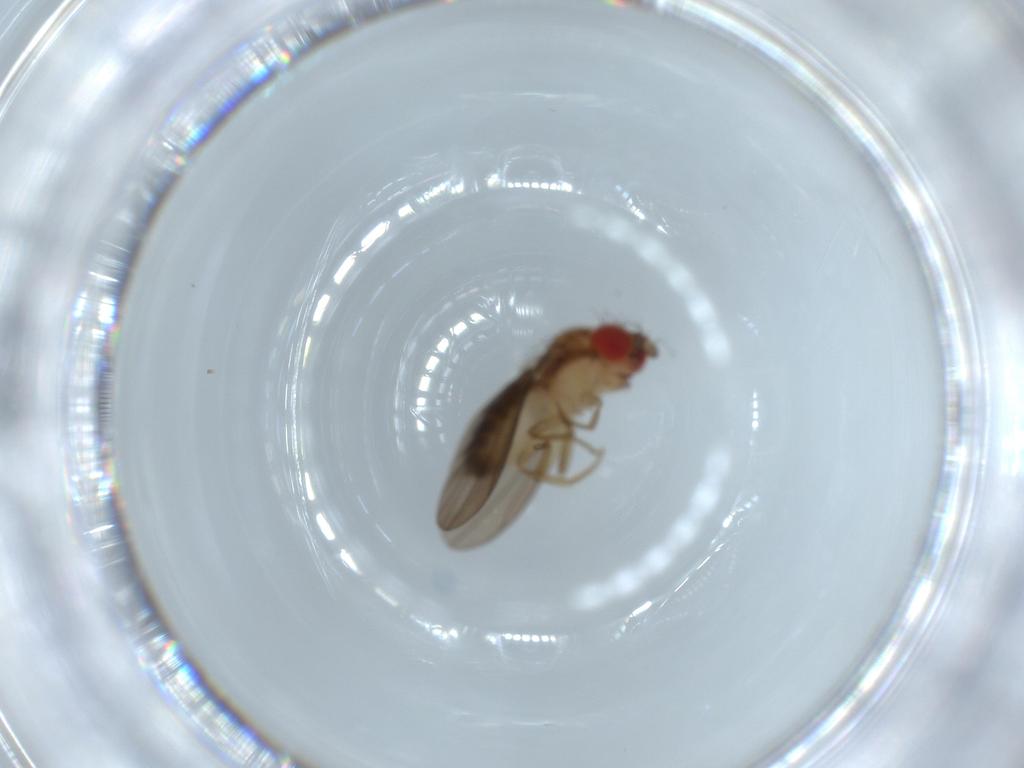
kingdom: Animalia
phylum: Arthropoda
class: Insecta
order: Diptera
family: Drosophilidae
